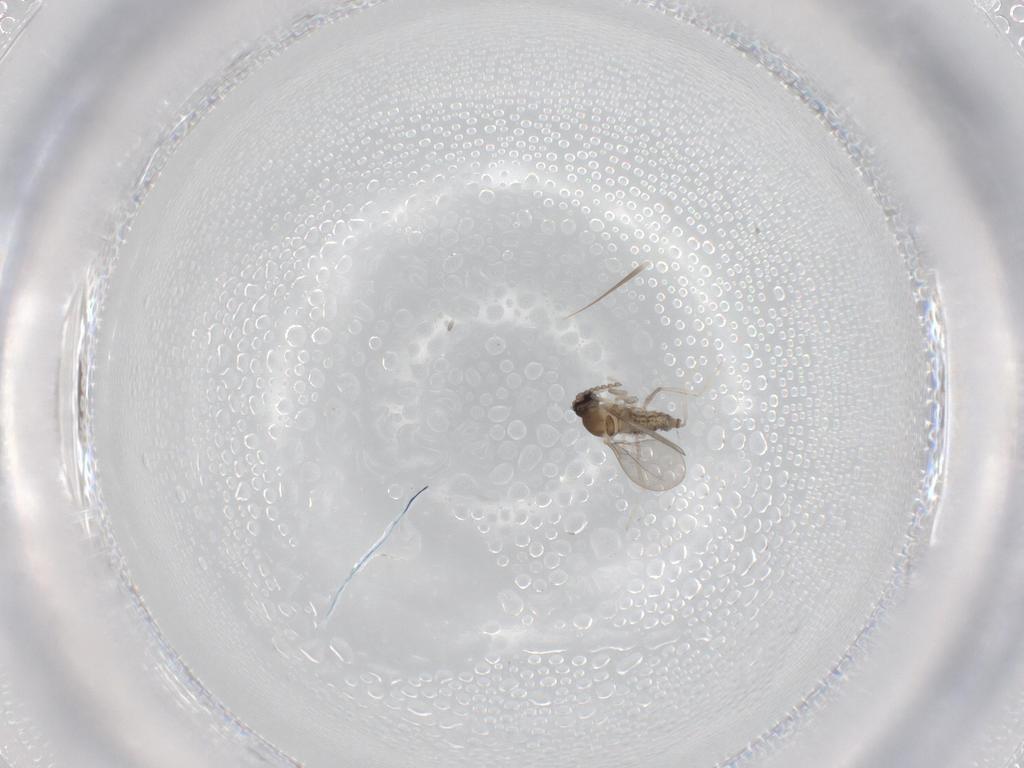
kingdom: Animalia
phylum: Arthropoda
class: Insecta
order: Diptera
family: Cecidomyiidae
